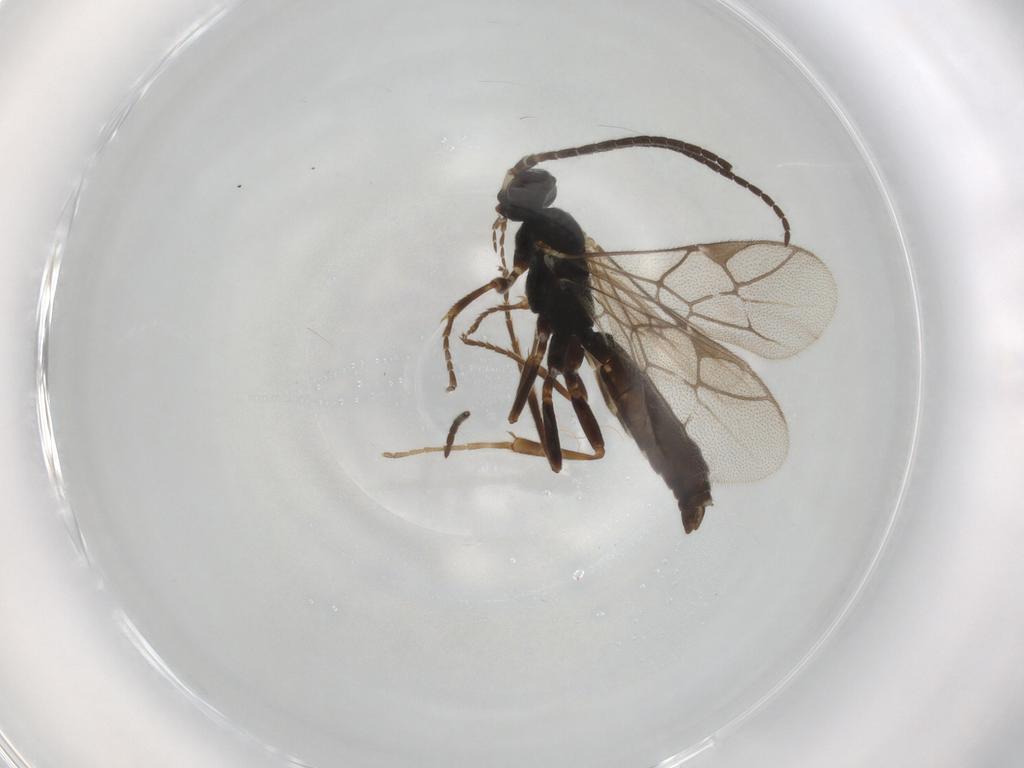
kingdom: Animalia
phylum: Arthropoda
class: Insecta
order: Hymenoptera
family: Ichneumonidae
